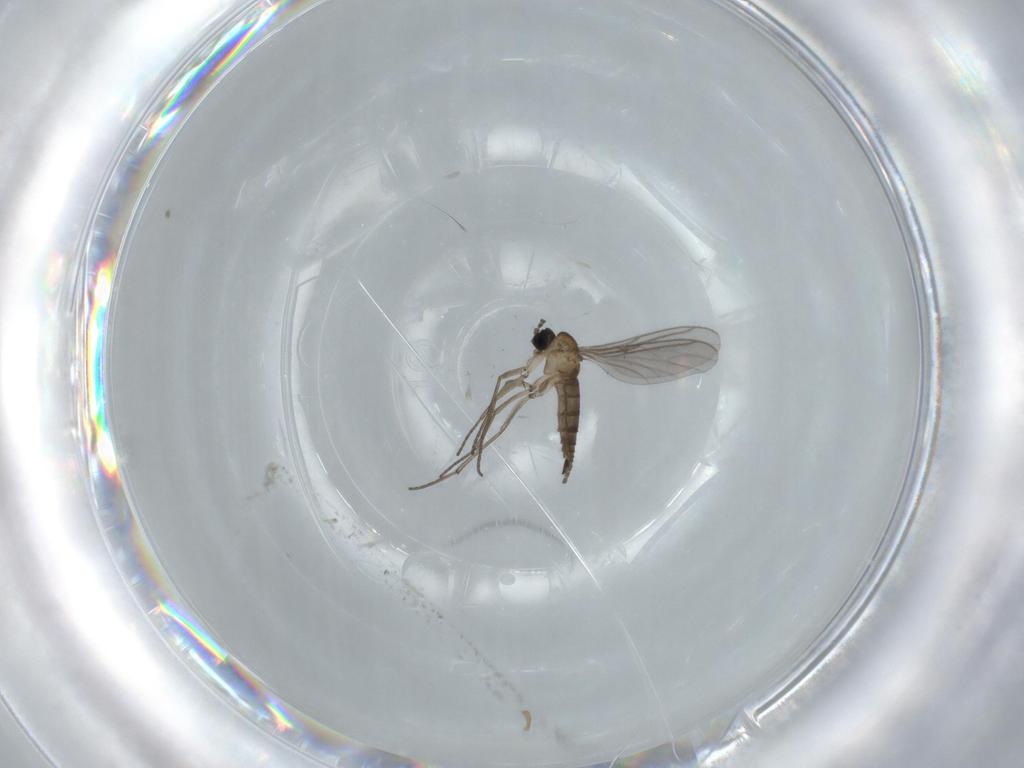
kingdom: Animalia
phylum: Arthropoda
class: Insecta
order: Diptera
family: Sciaridae
